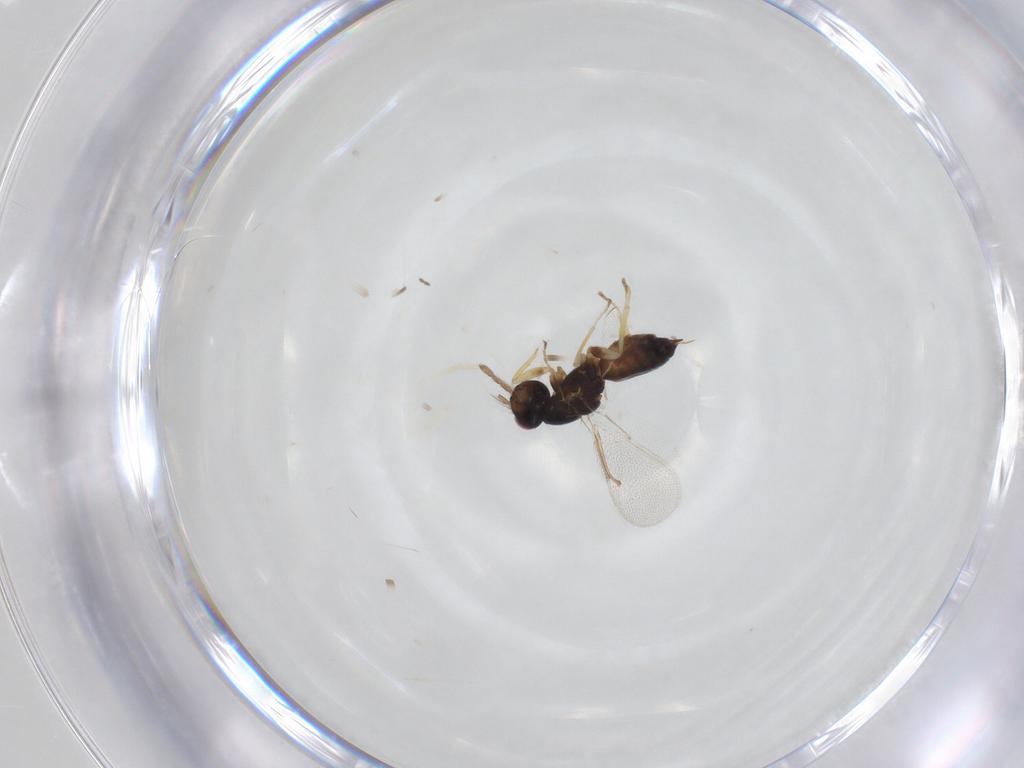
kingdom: Animalia
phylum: Arthropoda
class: Insecta
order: Hymenoptera
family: Eulophidae
